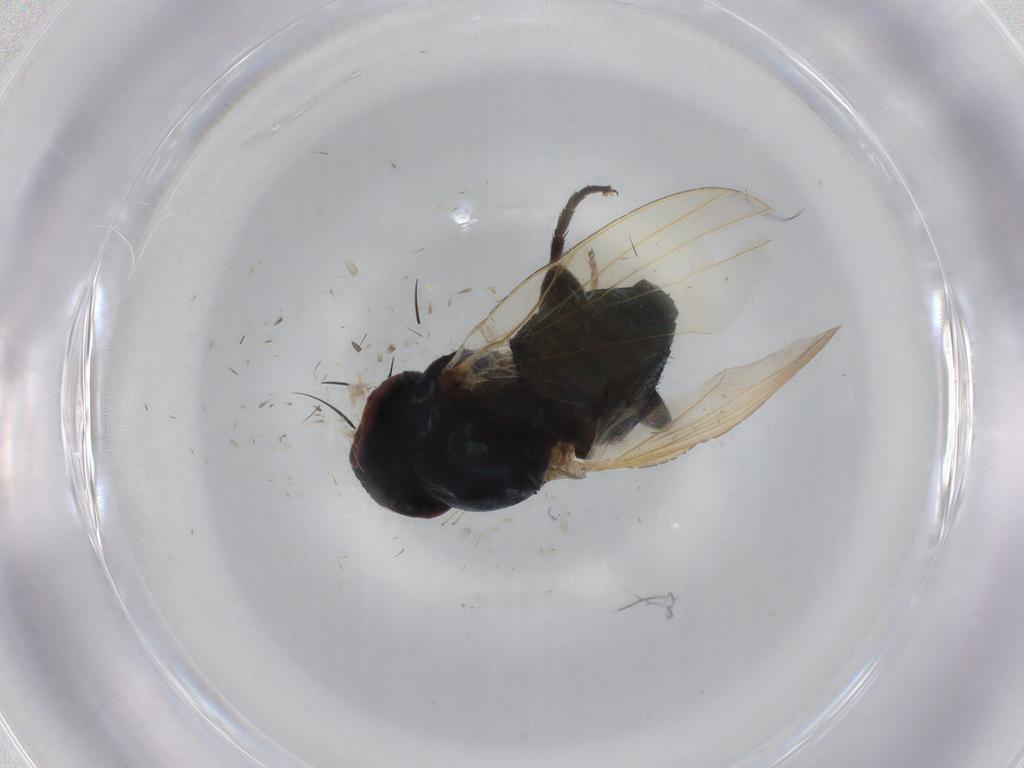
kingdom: Animalia
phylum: Arthropoda
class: Insecta
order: Diptera
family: Cecidomyiidae
